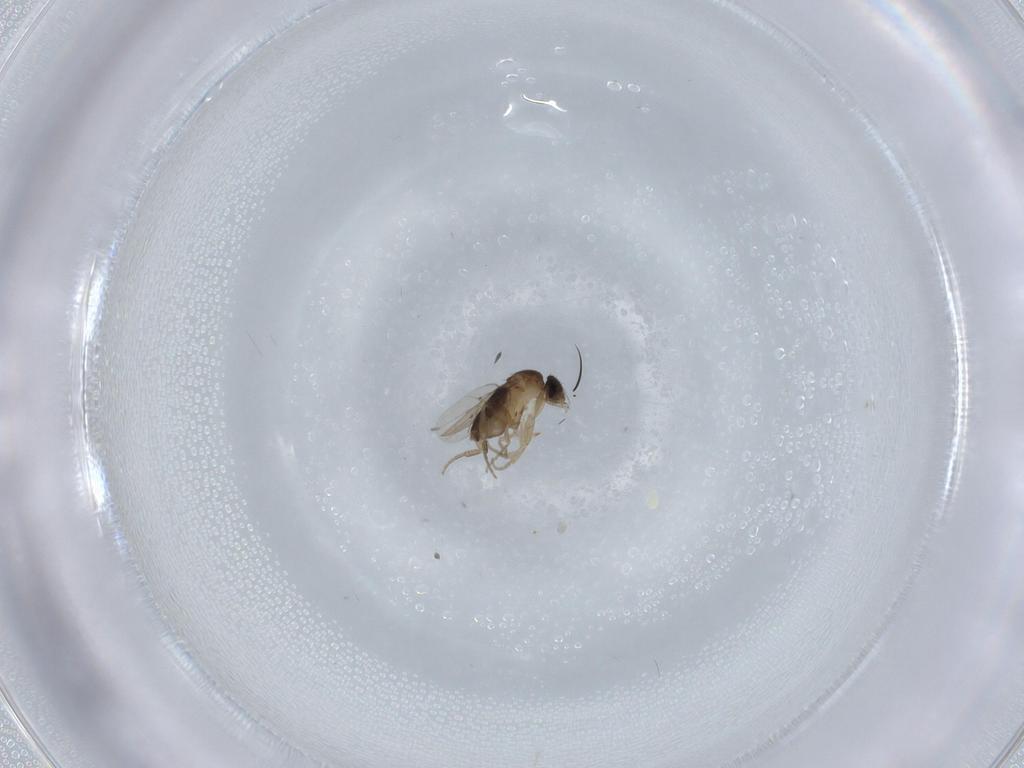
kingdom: Animalia
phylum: Arthropoda
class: Insecta
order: Diptera
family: Phoridae
